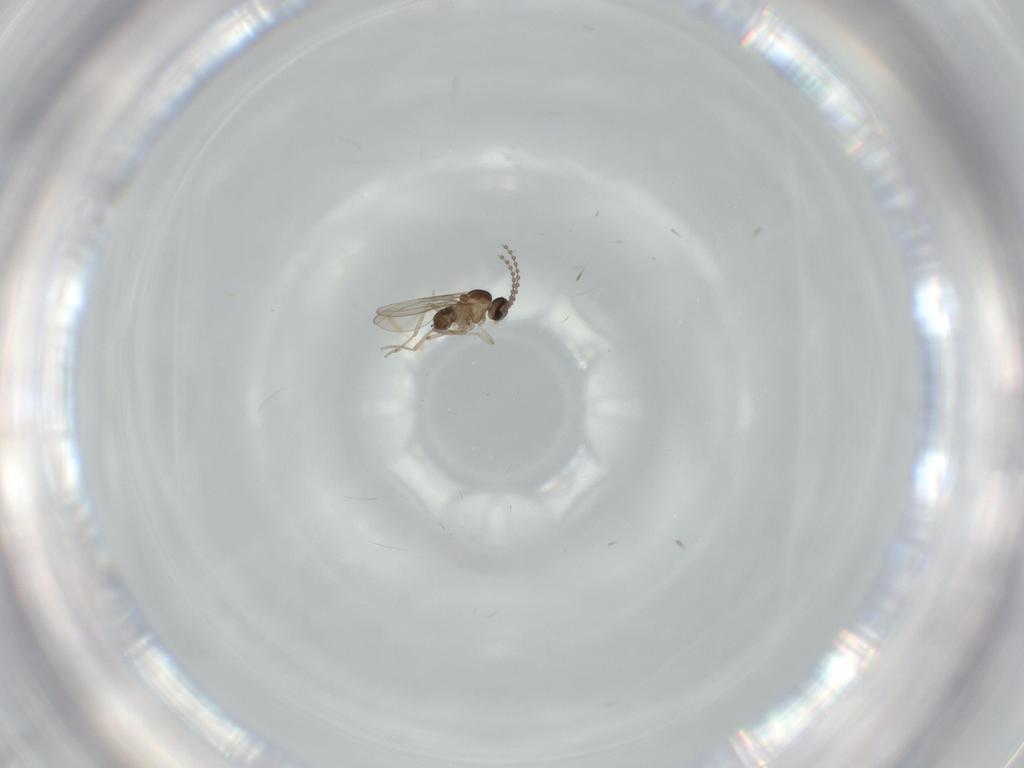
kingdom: Animalia
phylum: Arthropoda
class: Insecta
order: Diptera
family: Cecidomyiidae
